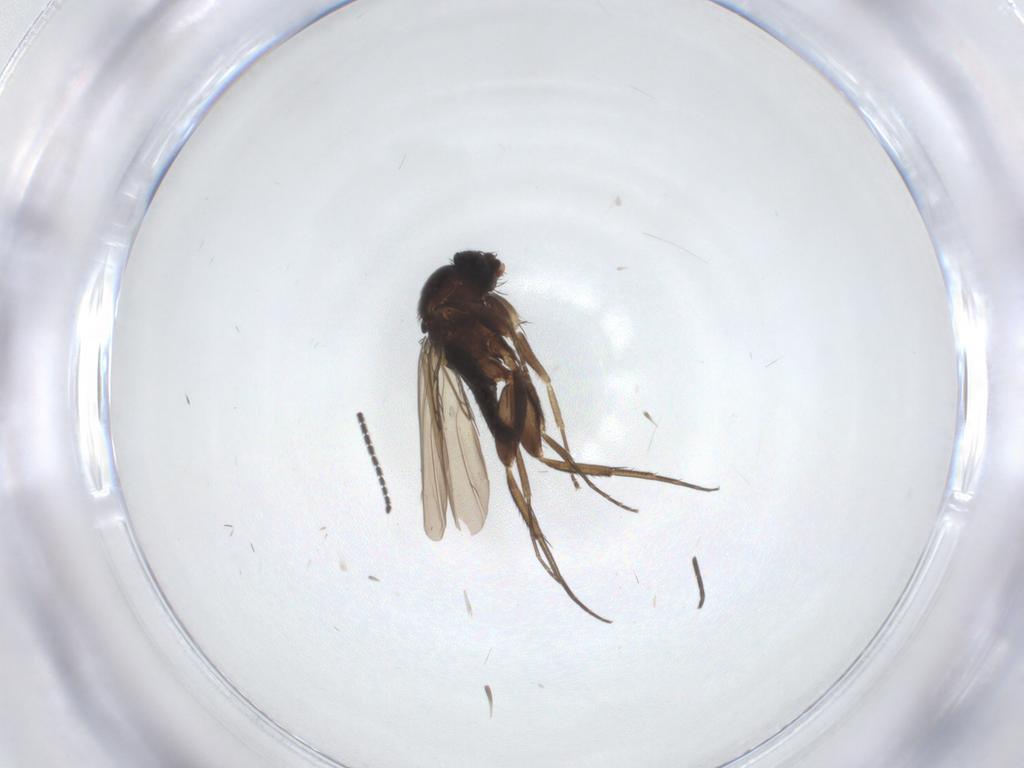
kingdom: Animalia
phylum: Arthropoda
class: Insecta
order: Diptera
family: Phoridae
